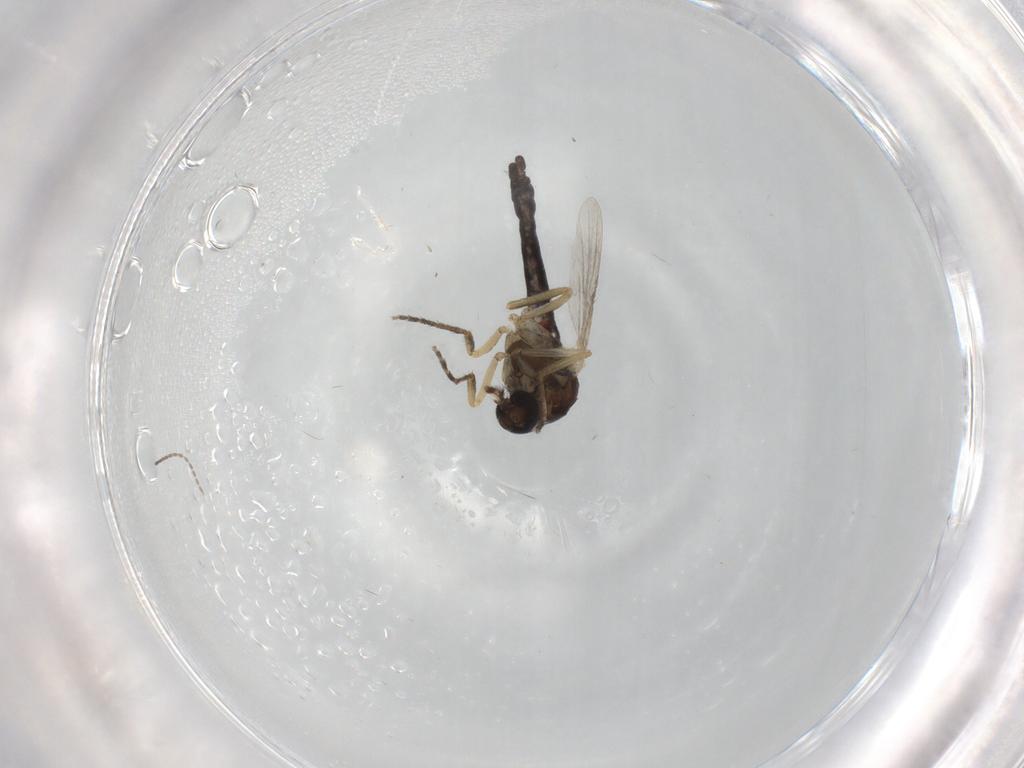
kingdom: Animalia
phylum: Arthropoda
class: Insecta
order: Diptera
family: Ceratopogonidae
